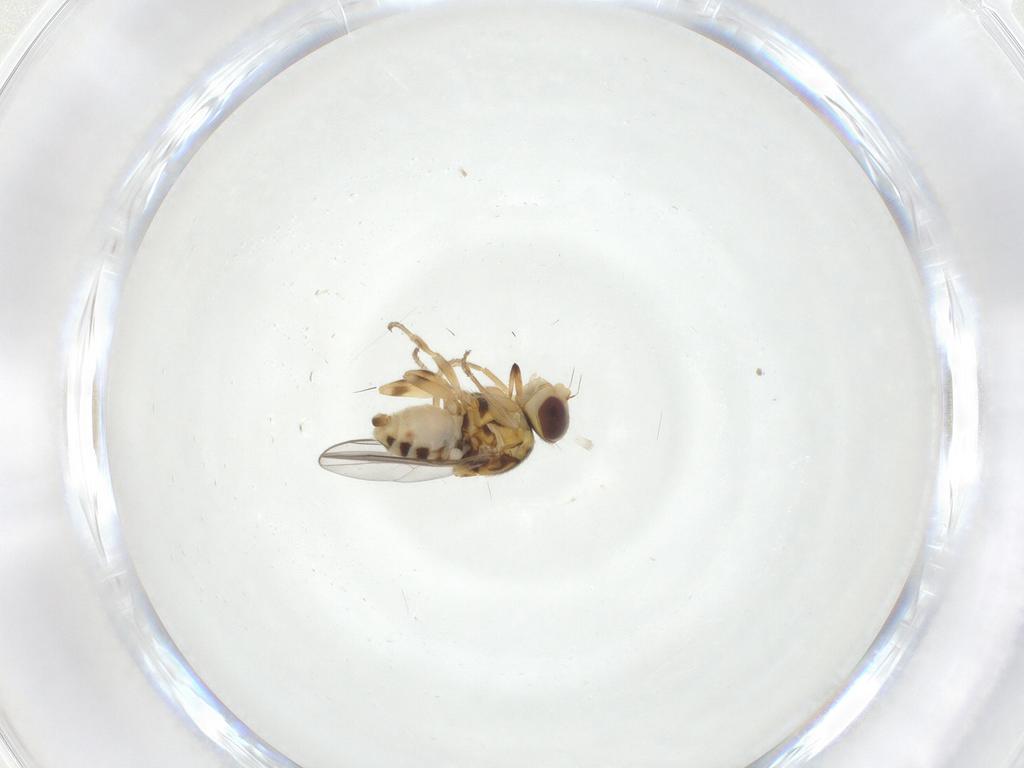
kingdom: Animalia
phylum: Arthropoda
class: Insecta
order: Diptera
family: Chloropidae
